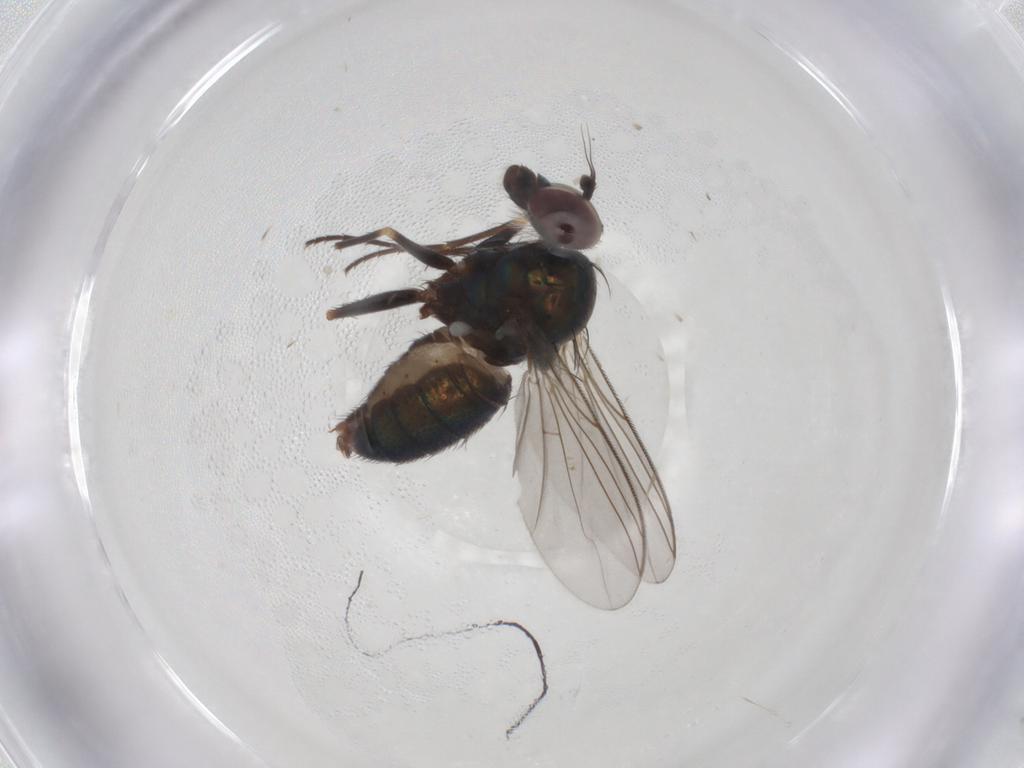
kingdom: Animalia
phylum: Arthropoda
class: Insecta
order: Diptera
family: Dolichopodidae
